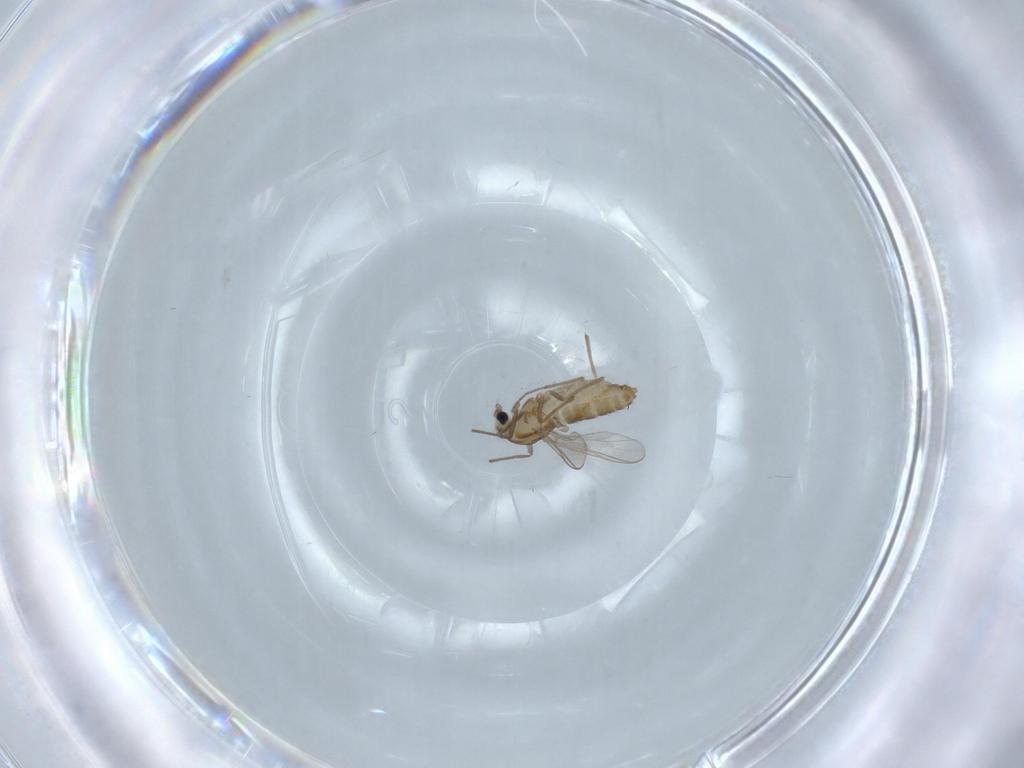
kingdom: Animalia
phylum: Arthropoda
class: Insecta
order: Diptera
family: Chironomidae
